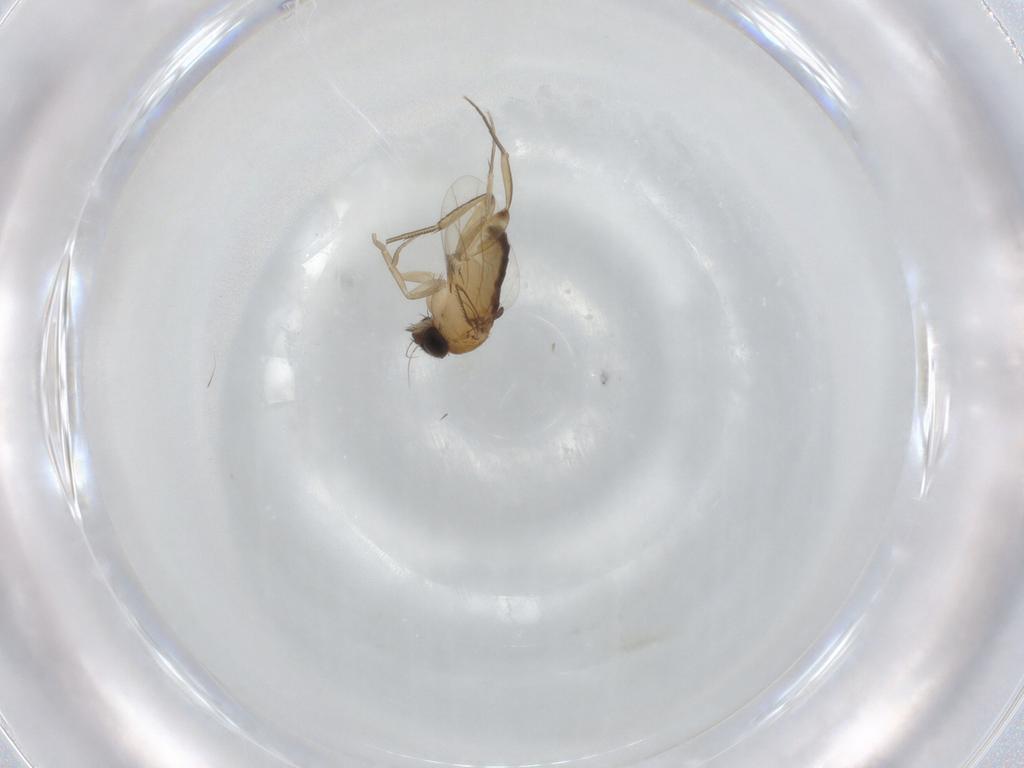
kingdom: Animalia
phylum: Arthropoda
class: Insecta
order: Diptera
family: Phoridae
